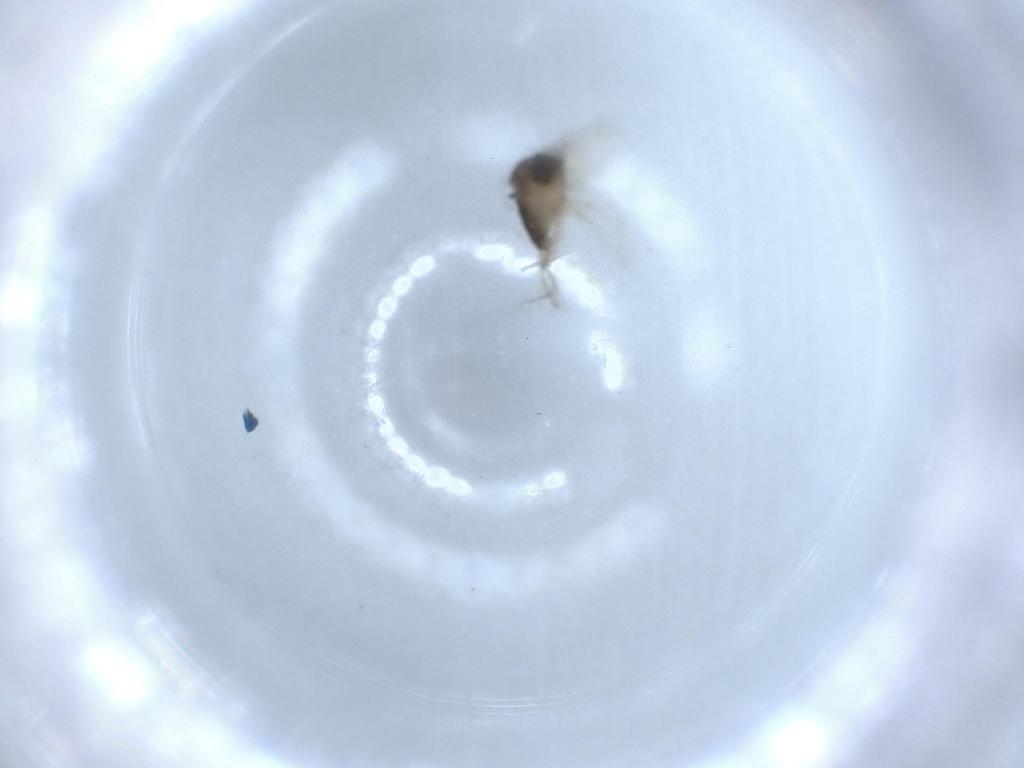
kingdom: Animalia
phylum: Arthropoda
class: Insecta
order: Diptera
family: Phoridae
